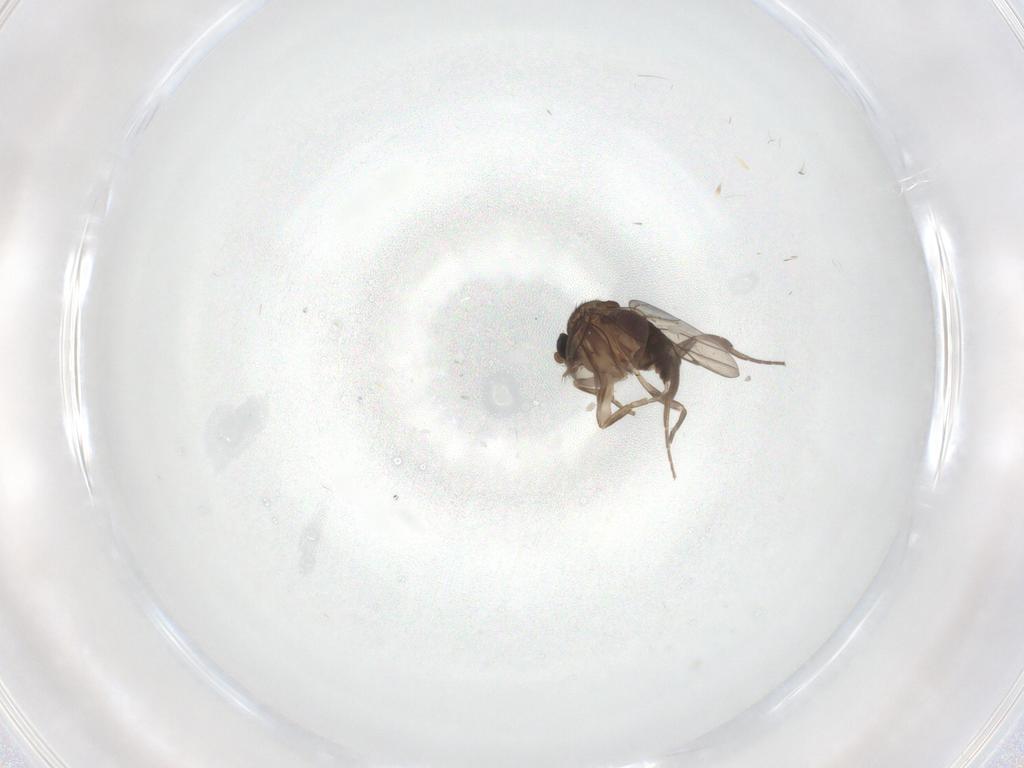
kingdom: Animalia
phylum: Arthropoda
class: Insecta
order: Diptera
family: Phoridae
